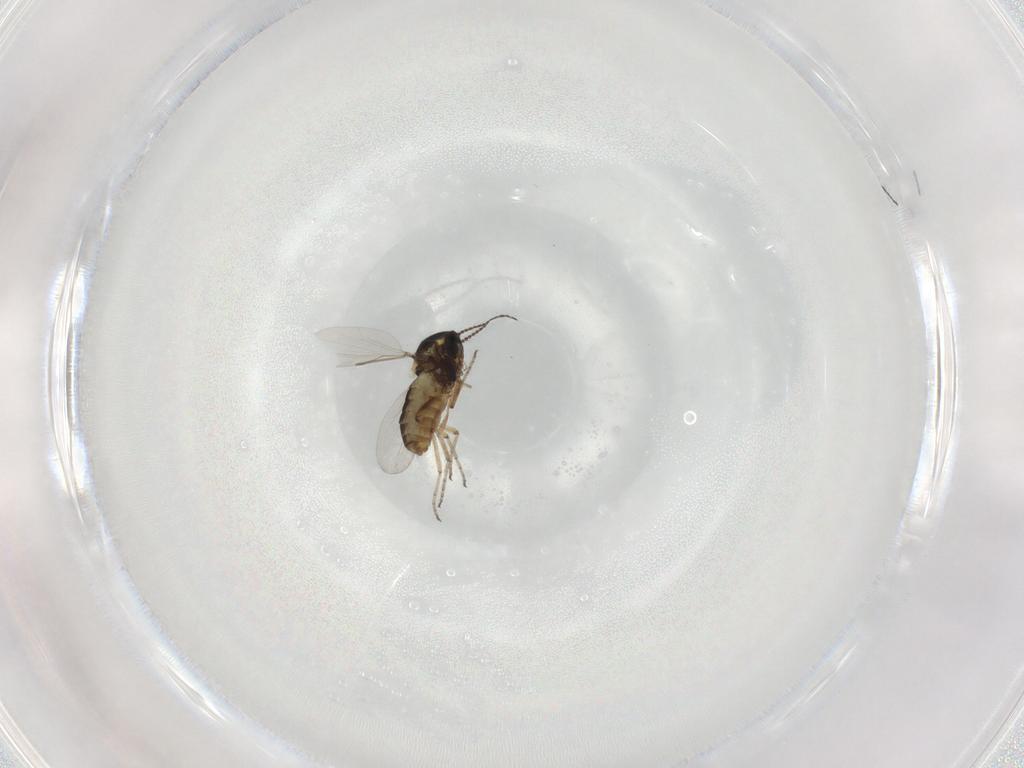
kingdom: Animalia
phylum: Arthropoda
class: Insecta
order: Diptera
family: Ceratopogonidae
